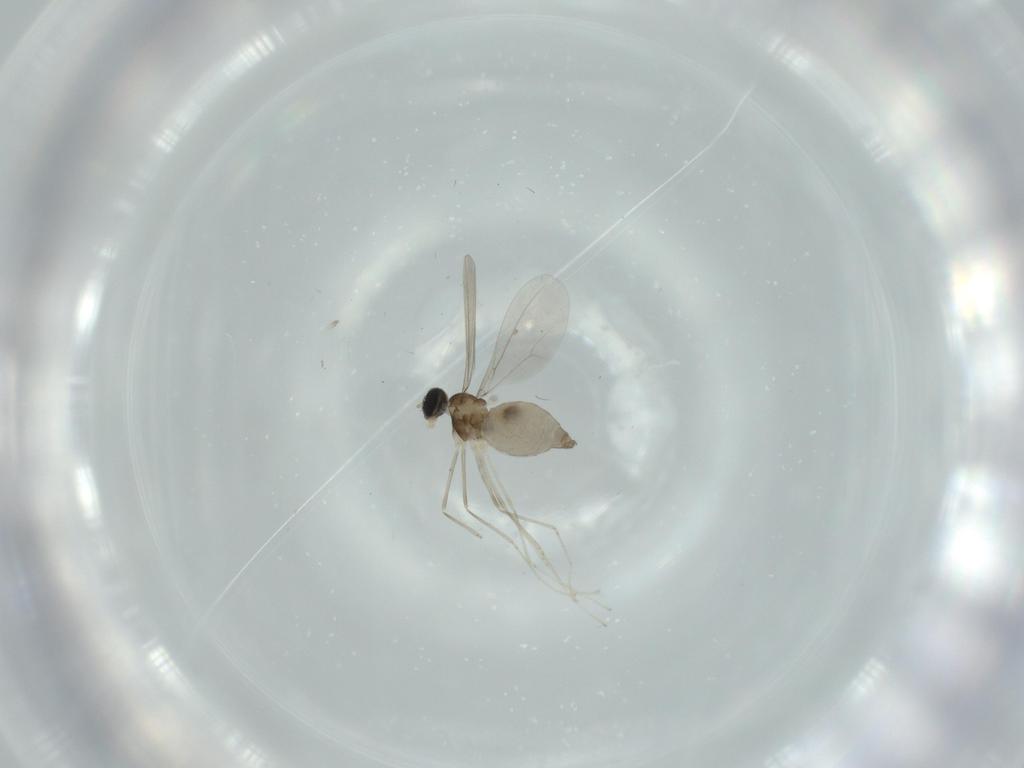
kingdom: Animalia
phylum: Arthropoda
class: Insecta
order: Diptera
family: Cecidomyiidae
